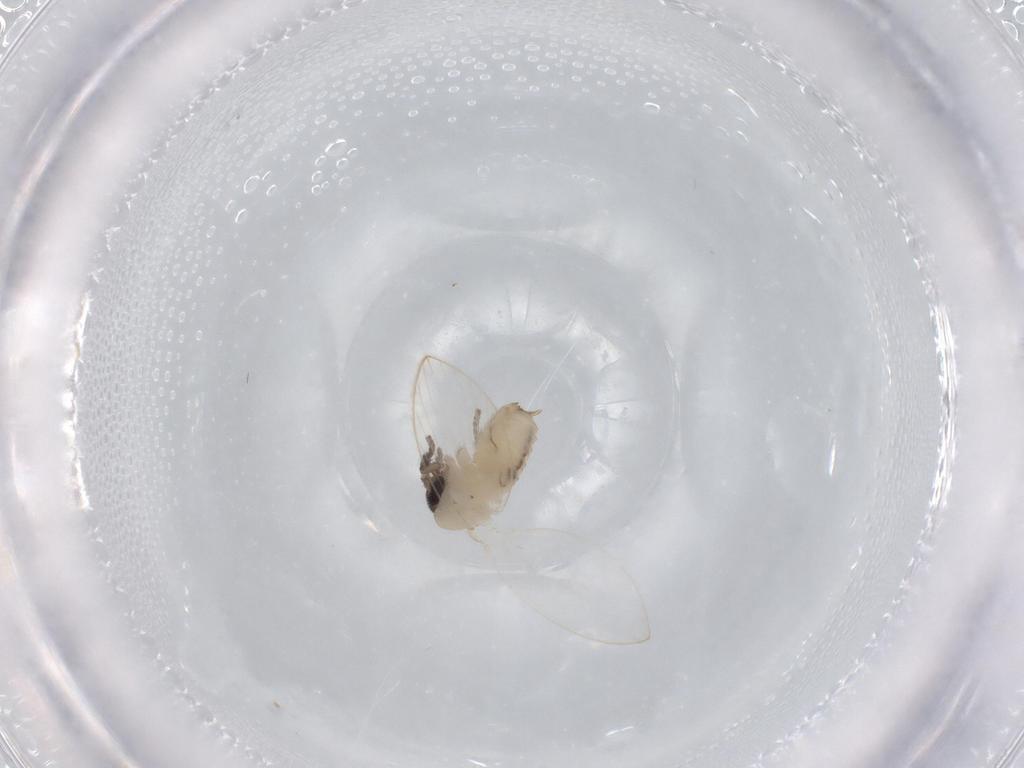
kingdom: Animalia
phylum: Arthropoda
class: Insecta
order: Diptera
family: Psychodidae
